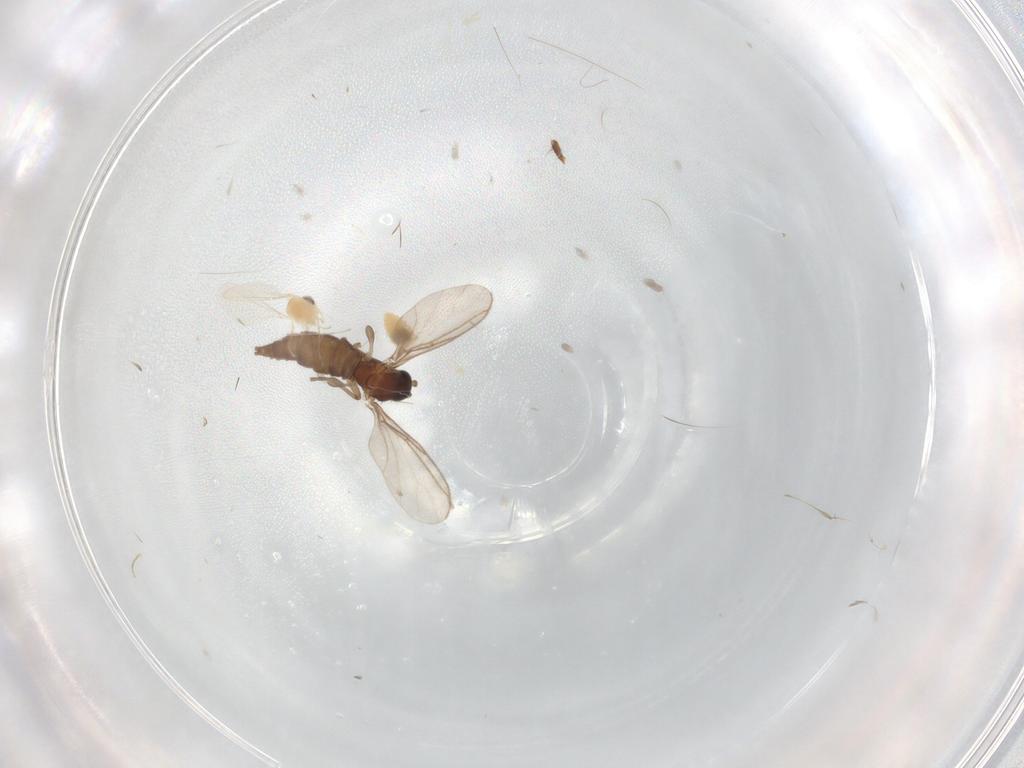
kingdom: Animalia
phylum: Arthropoda
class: Insecta
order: Diptera
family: Cecidomyiidae
